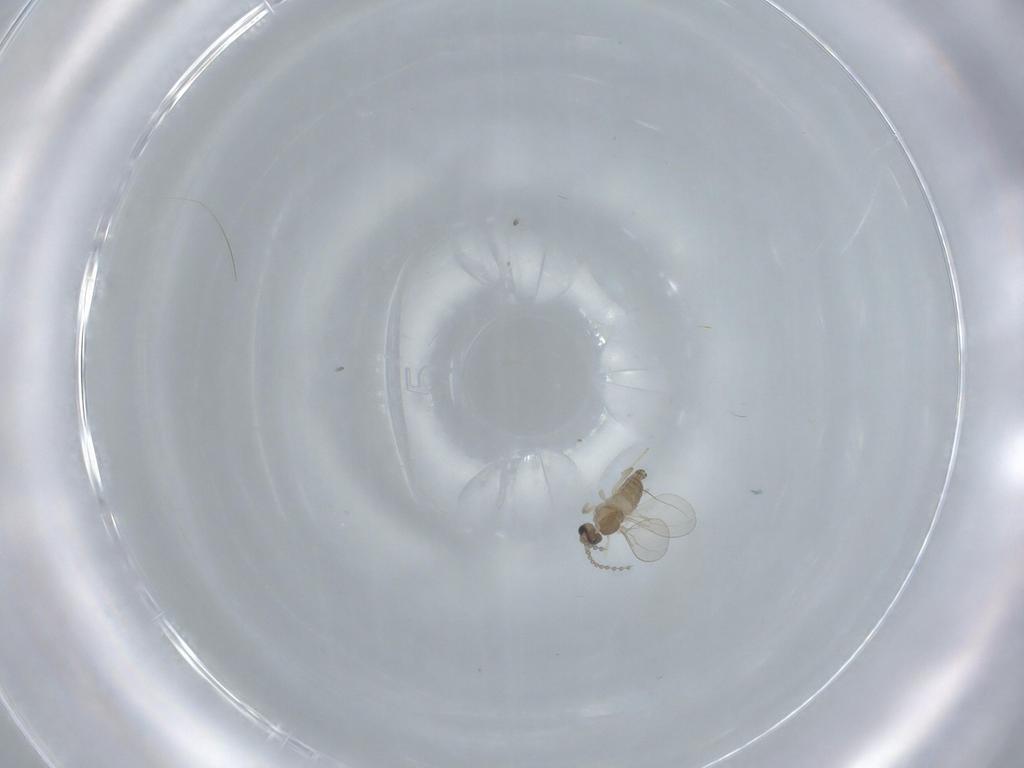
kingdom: Animalia
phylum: Arthropoda
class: Insecta
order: Diptera
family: Cecidomyiidae
